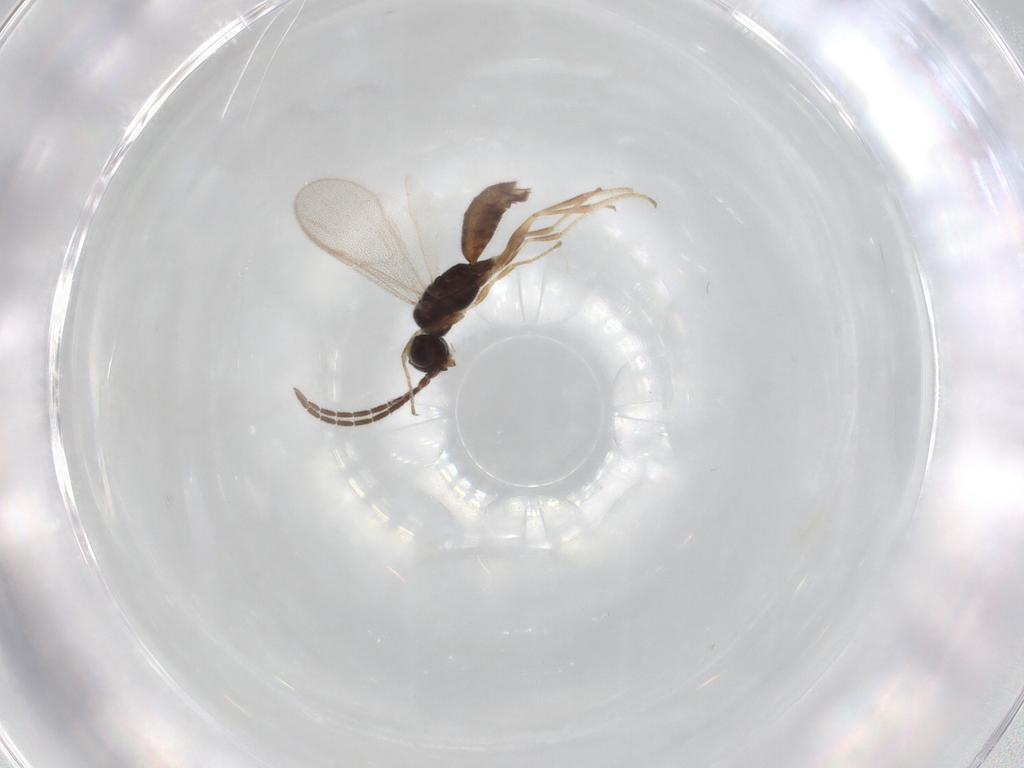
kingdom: Animalia
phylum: Arthropoda
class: Insecta
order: Hymenoptera
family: Dryinidae
